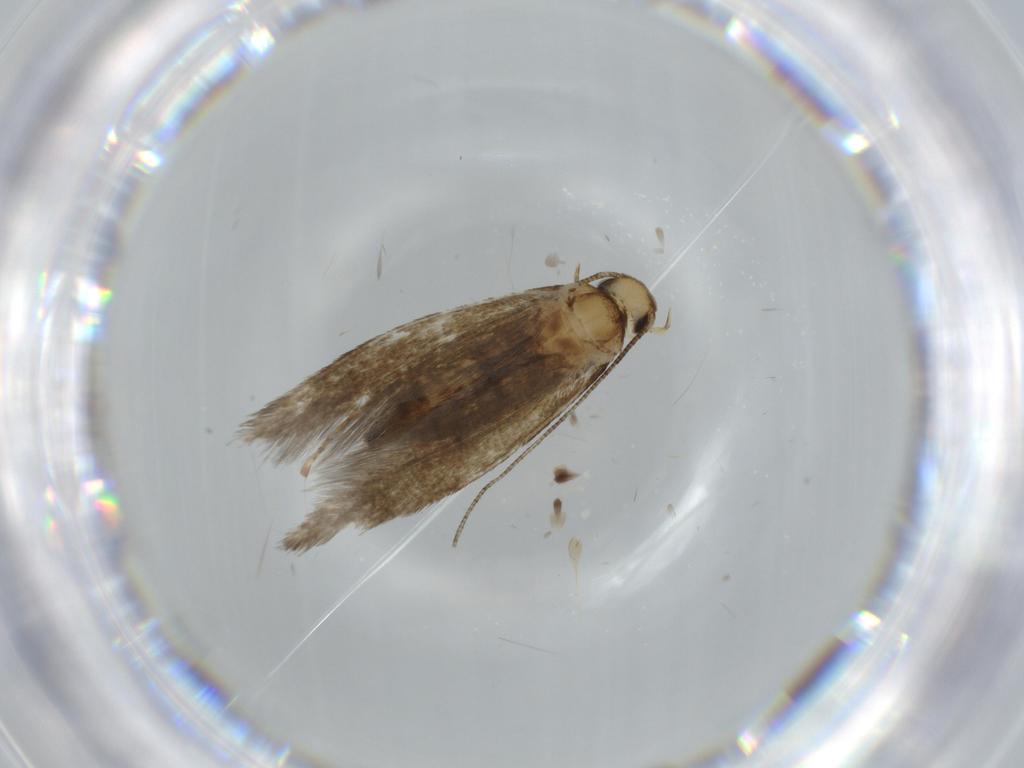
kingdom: Animalia
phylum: Arthropoda
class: Insecta
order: Lepidoptera
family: Tineidae
